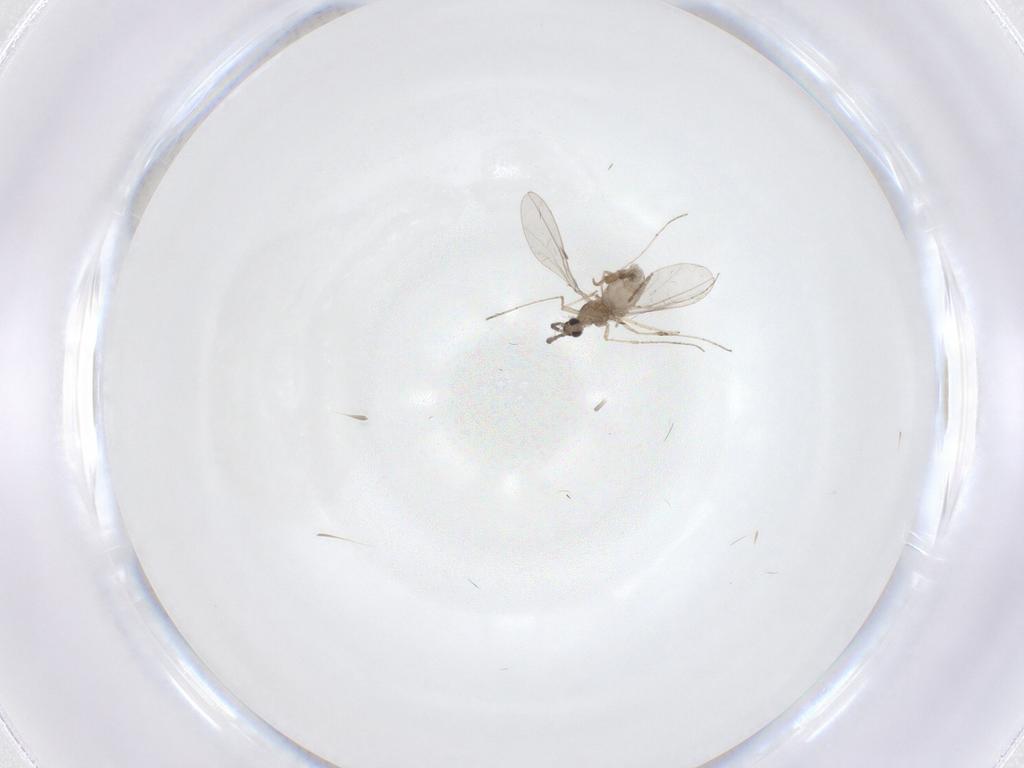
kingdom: Animalia
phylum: Arthropoda
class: Insecta
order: Diptera
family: Cecidomyiidae
